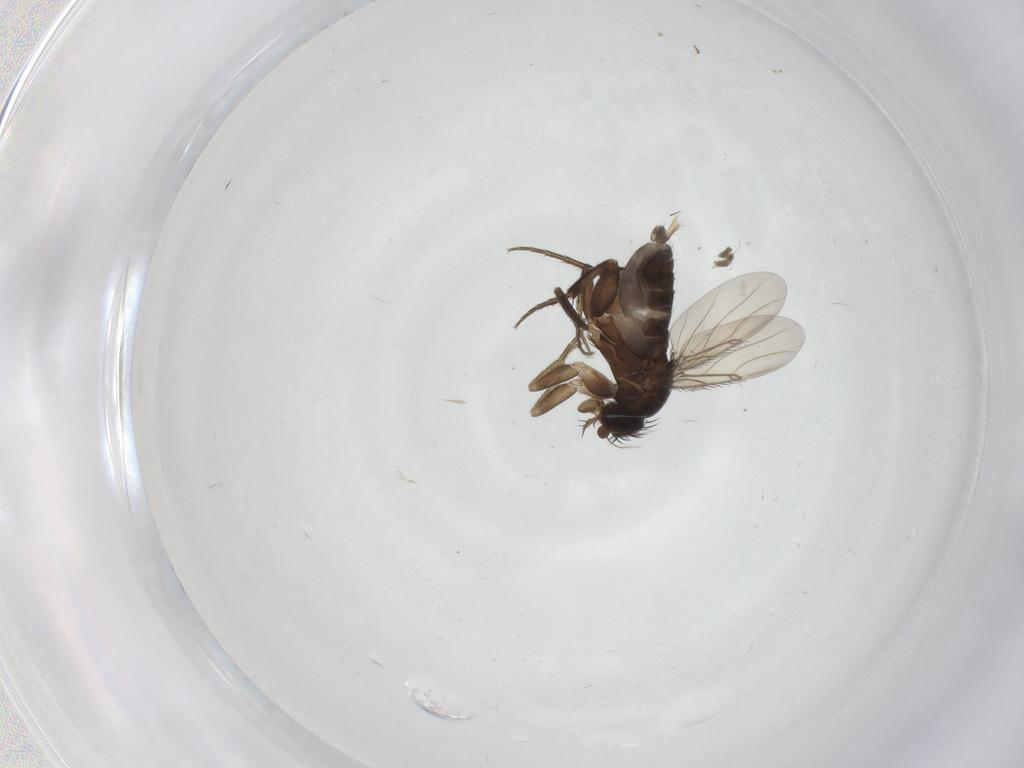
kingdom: Animalia
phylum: Arthropoda
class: Insecta
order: Diptera
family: Phoridae
